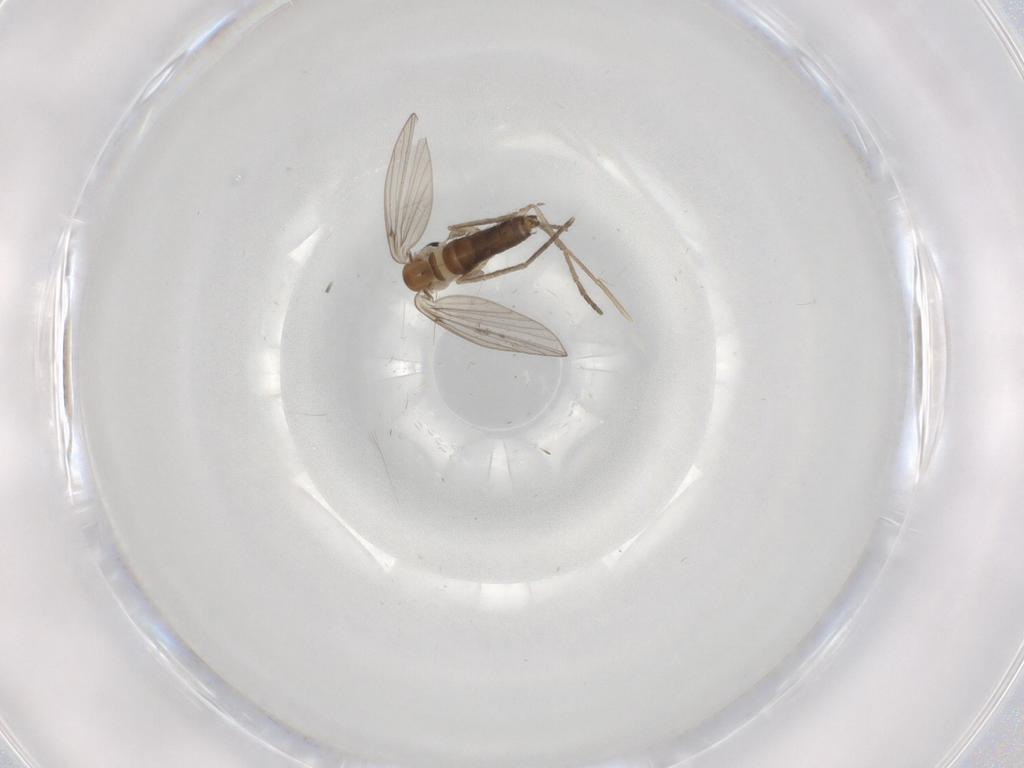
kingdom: Animalia
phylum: Arthropoda
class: Insecta
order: Diptera
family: Psychodidae
